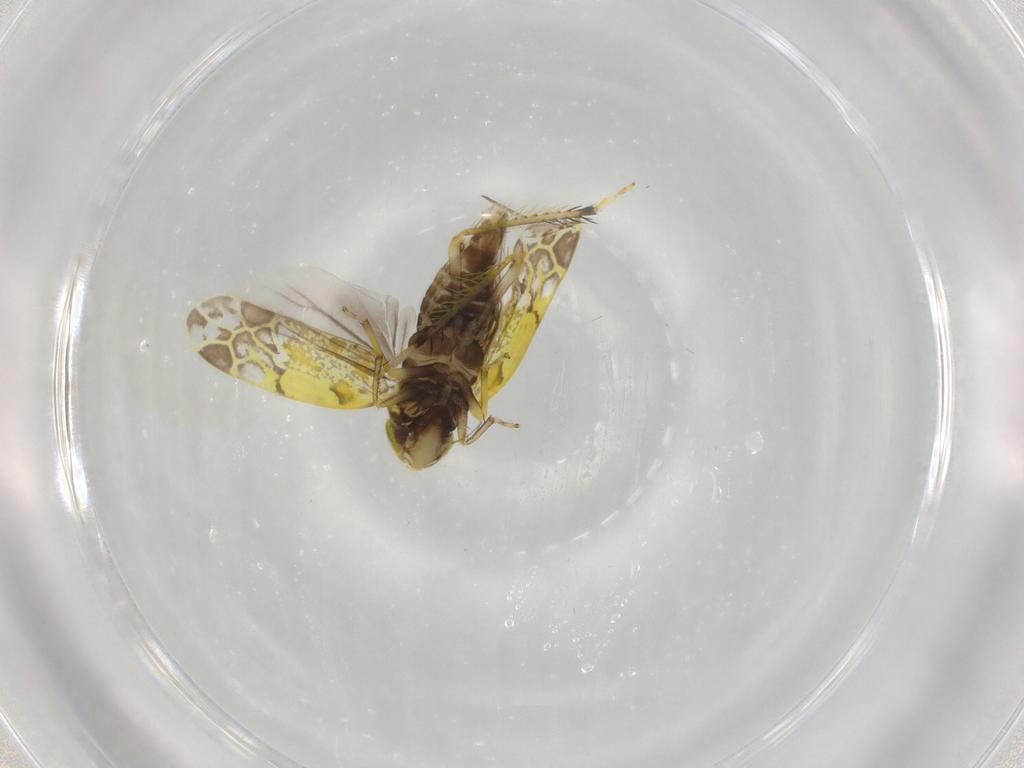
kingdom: Animalia
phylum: Arthropoda
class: Insecta
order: Hemiptera
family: Cicadellidae
